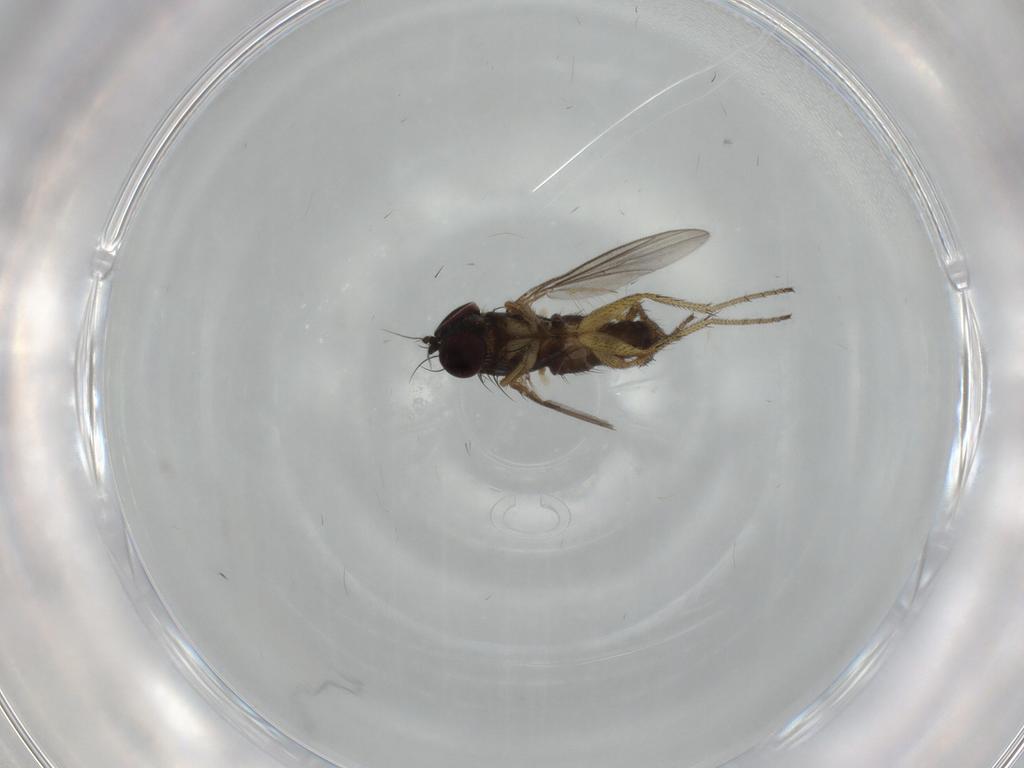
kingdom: Animalia
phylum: Arthropoda
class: Insecta
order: Diptera
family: Dolichopodidae
